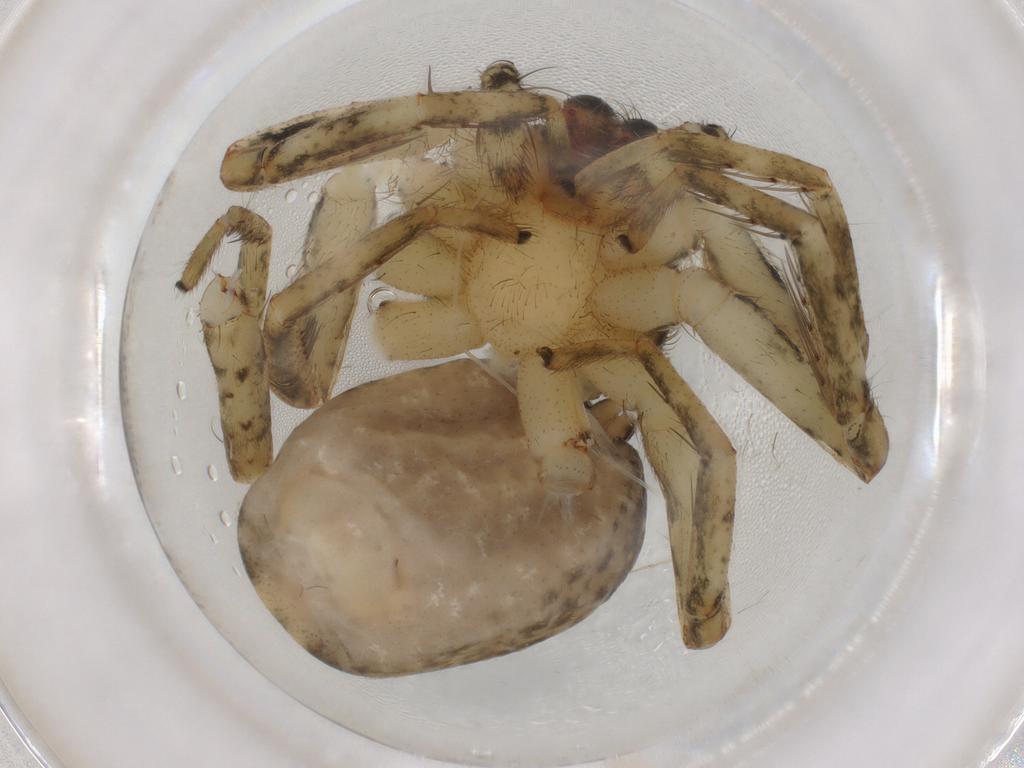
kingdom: Animalia
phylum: Arthropoda
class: Arachnida
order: Araneae
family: Selenopidae
